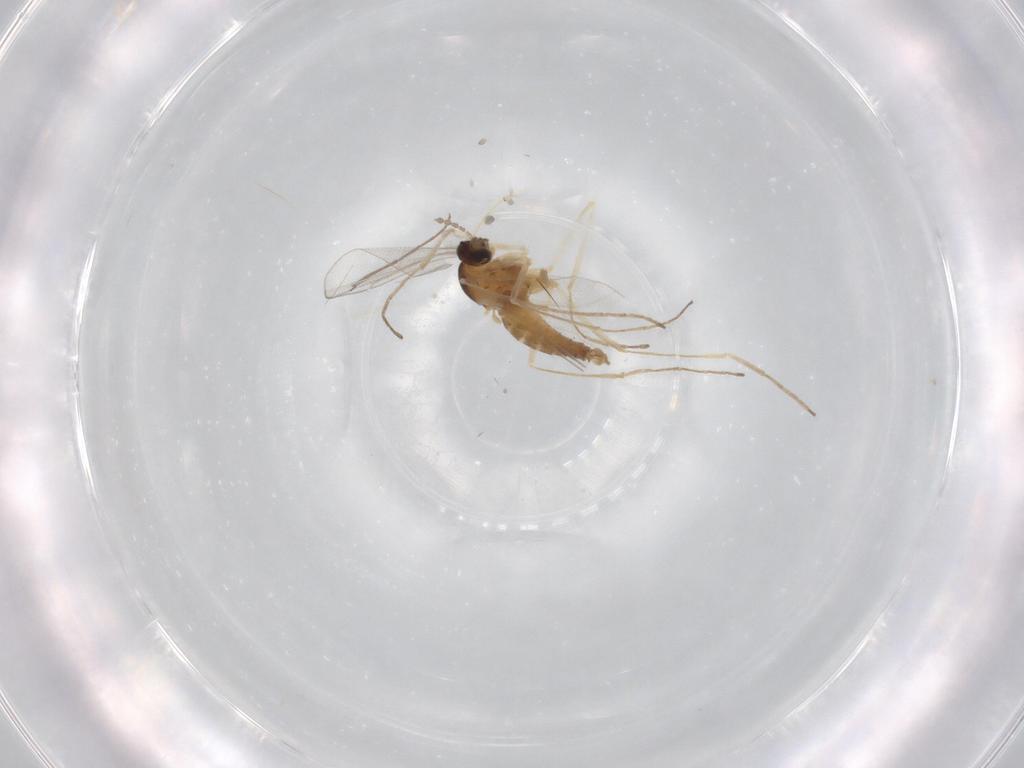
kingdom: Animalia
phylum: Arthropoda
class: Insecta
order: Diptera
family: Cecidomyiidae
